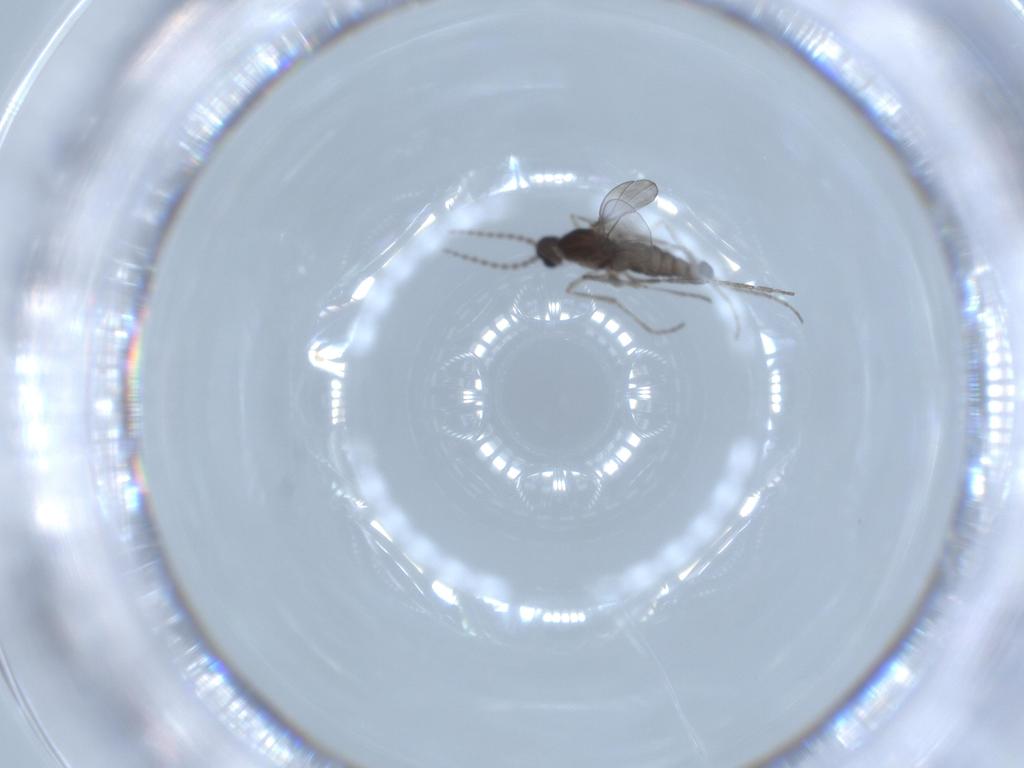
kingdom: Animalia
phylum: Arthropoda
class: Insecta
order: Diptera
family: Cecidomyiidae
